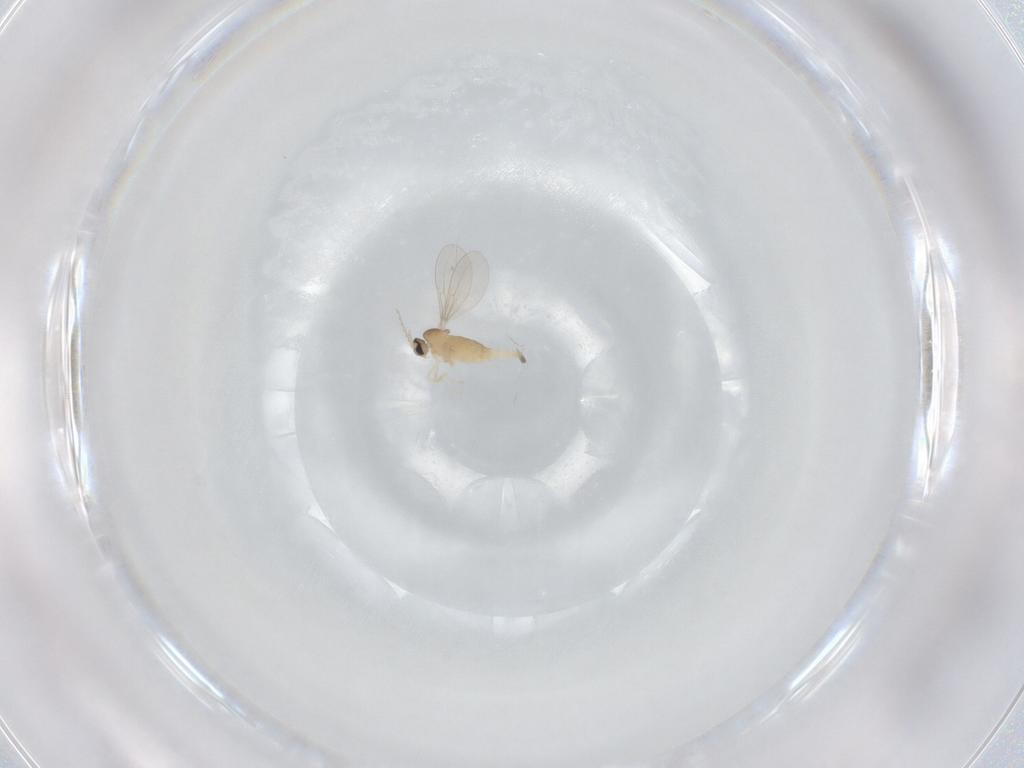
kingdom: Animalia
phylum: Arthropoda
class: Insecta
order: Diptera
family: Cecidomyiidae
